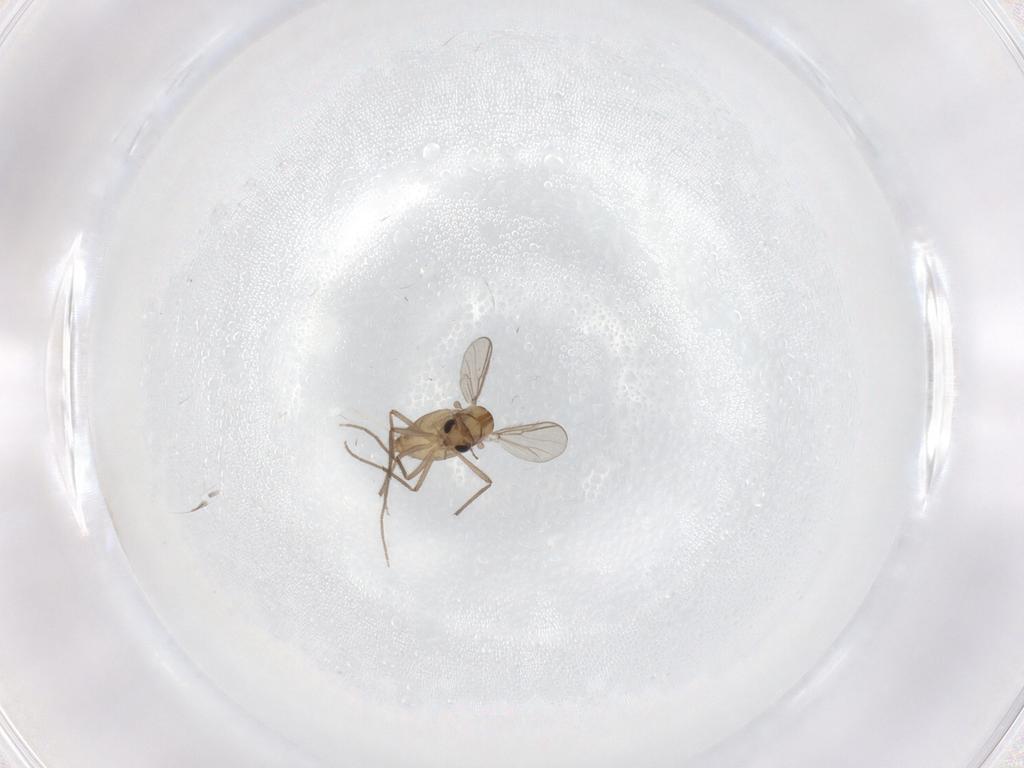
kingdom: Animalia
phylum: Arthropoda
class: Insecta
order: Diptera
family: Chironomidae
